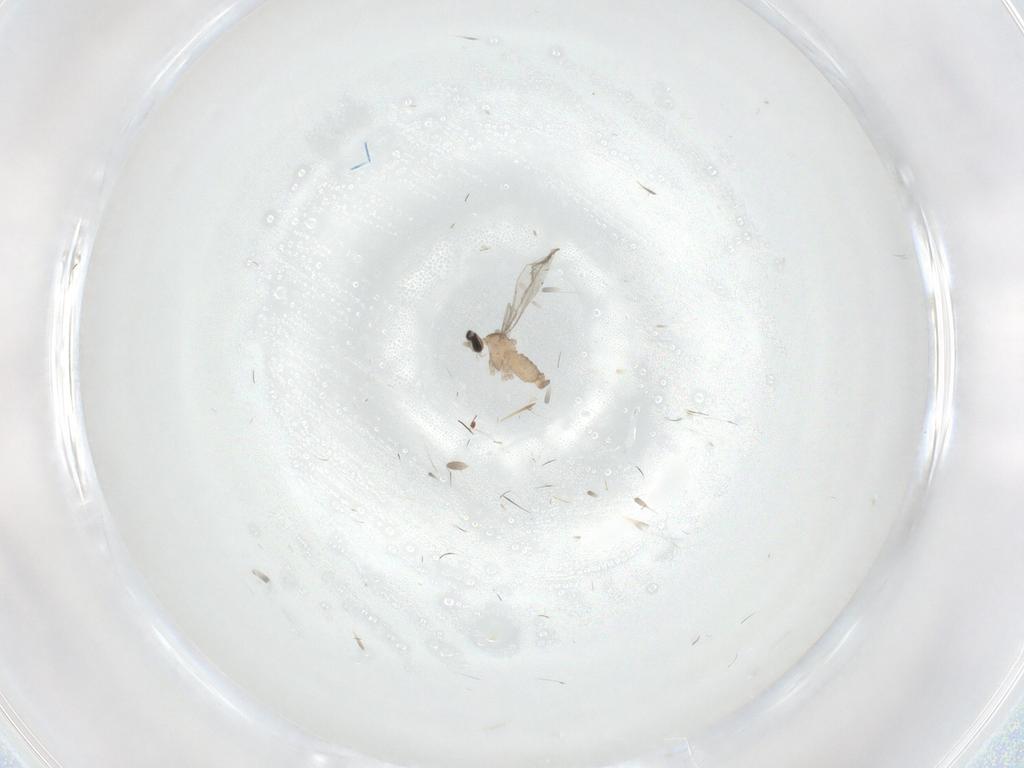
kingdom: Animalia
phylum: Arthropoda
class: Insecta
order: Diptera
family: Cecidomyiidae
